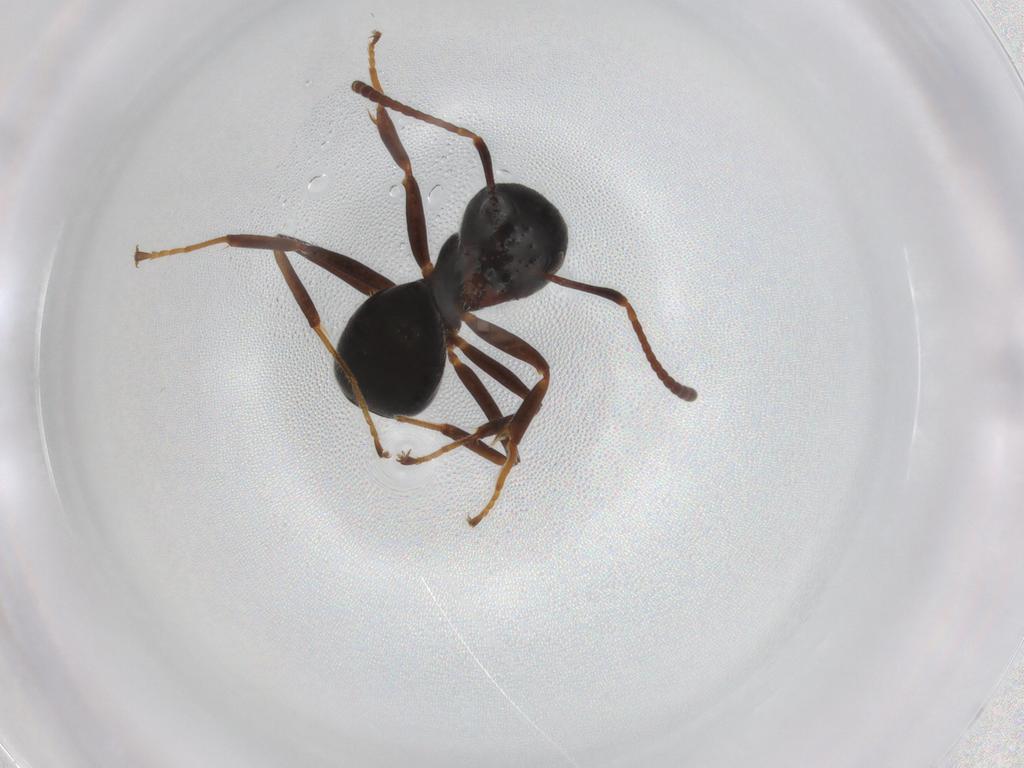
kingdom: Animalia
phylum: Arthropoda
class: Insecta
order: Hymenoptera
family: Formicidae
